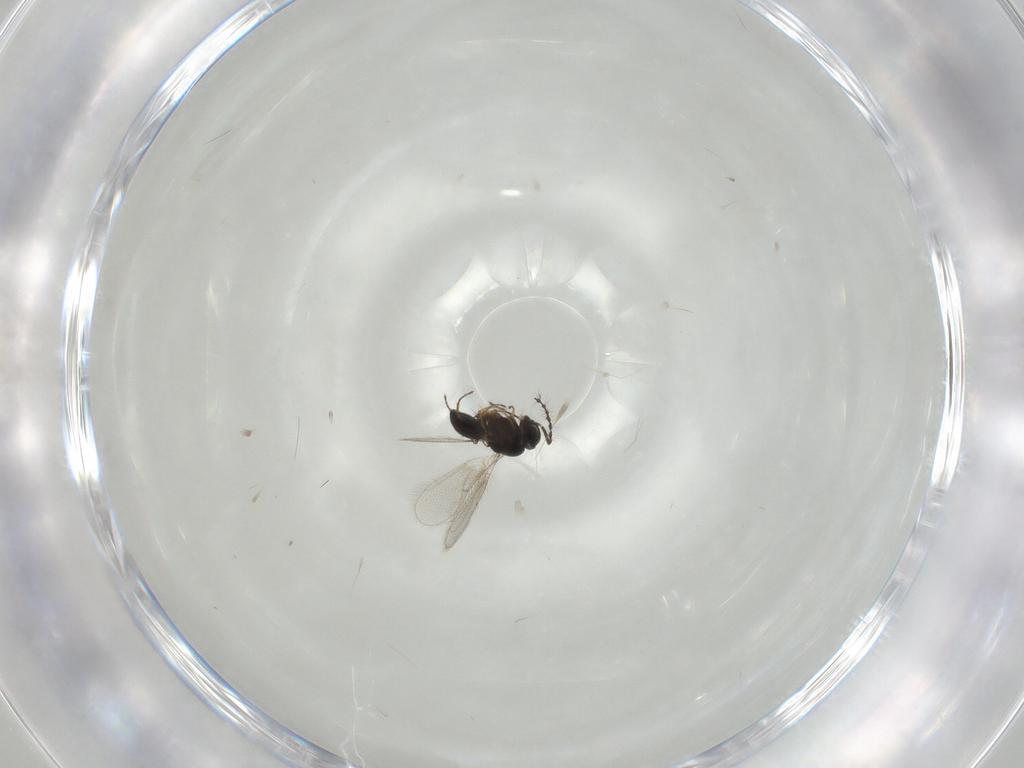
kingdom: Animalia
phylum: Arthropoda
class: Insecta
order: Hymenoptera
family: Scelionidae
